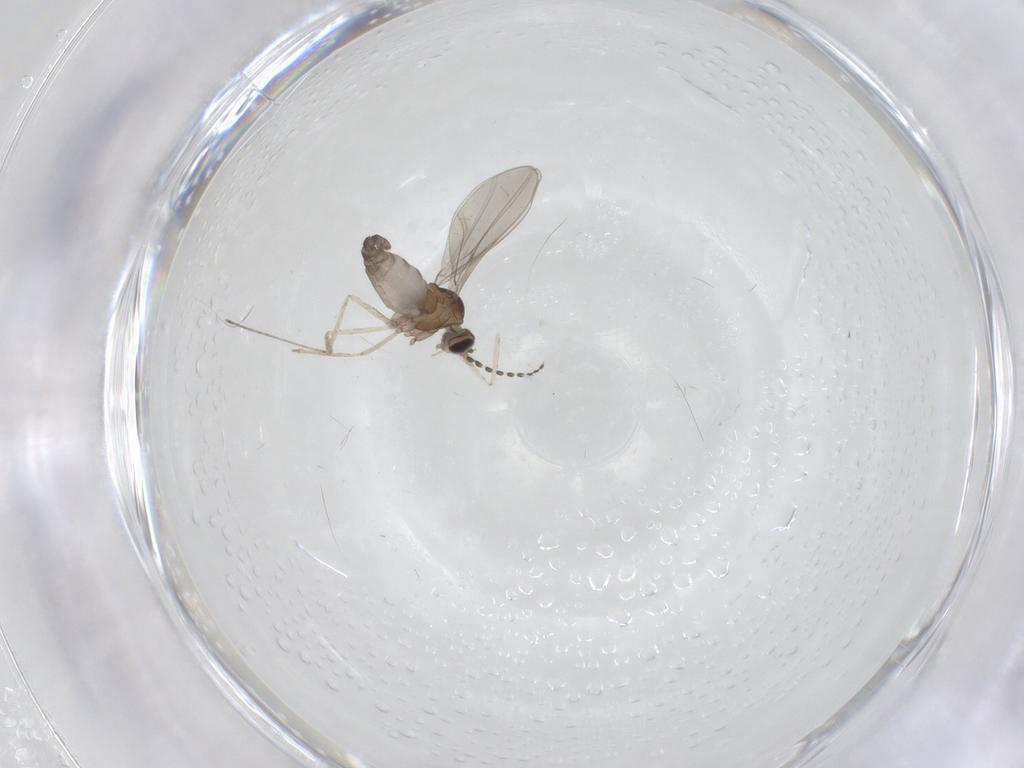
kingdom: Animalia
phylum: Arthropoda
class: Insecta
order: Diptera
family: Cecidomyiidae
